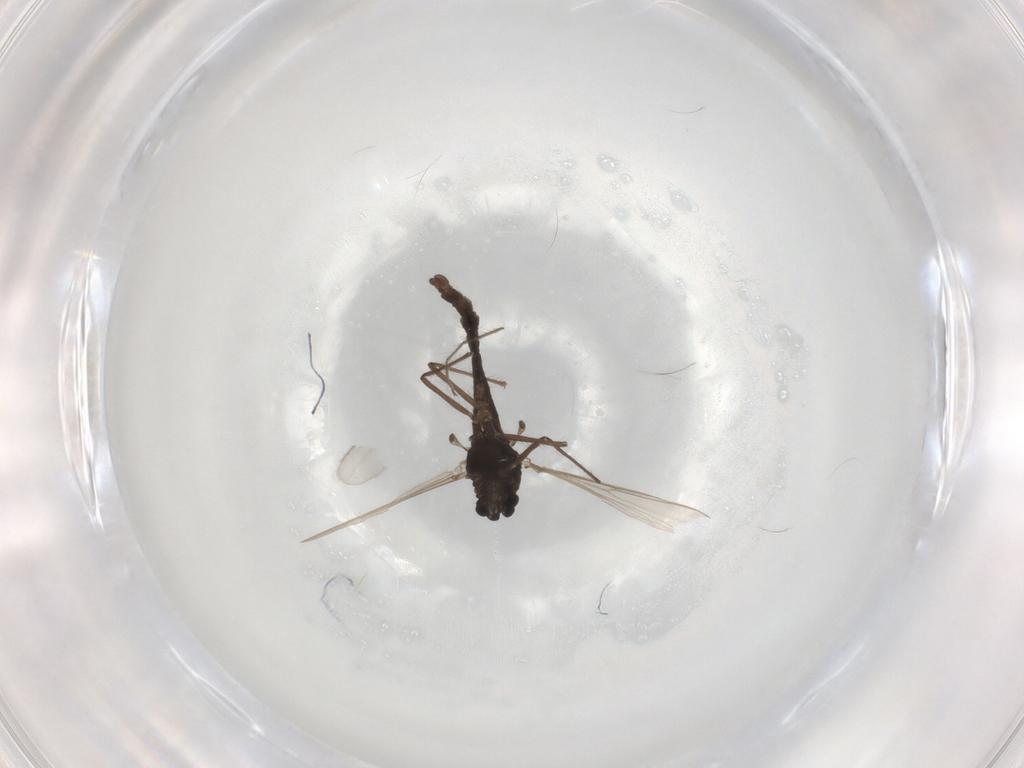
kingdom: Animalia
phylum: Arthropoda
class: Insecta
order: Diptera
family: Chironomidae
